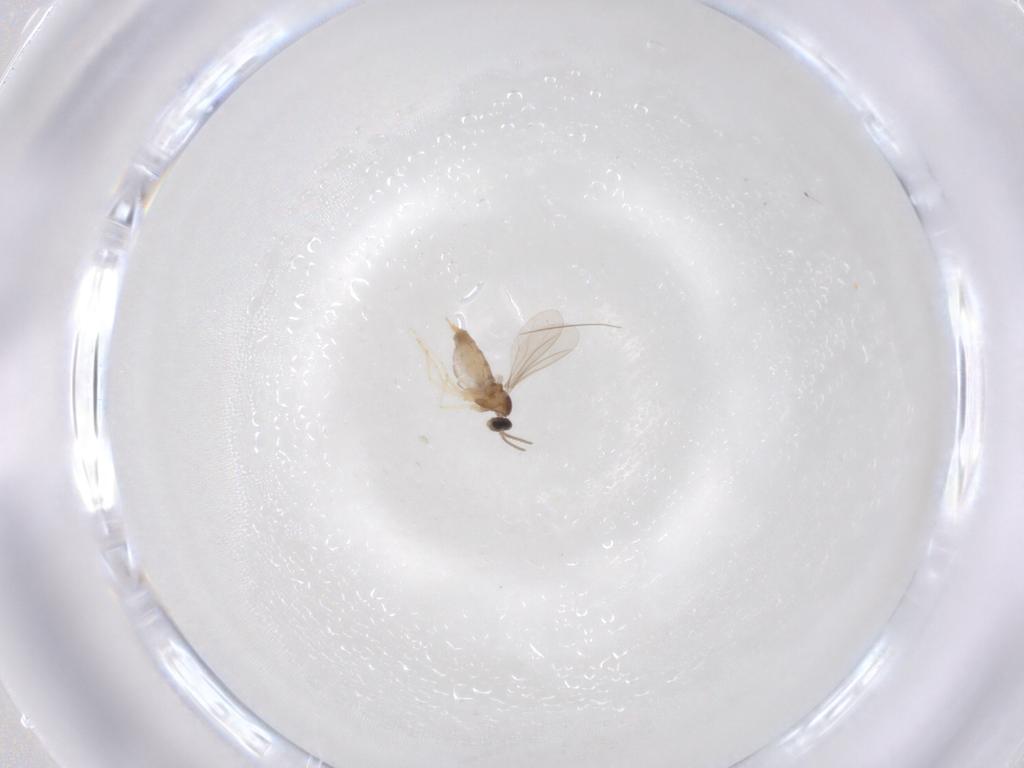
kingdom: Animalia
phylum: Arthropoda
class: Insecta
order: Diptera
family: Cecidomyiidae
